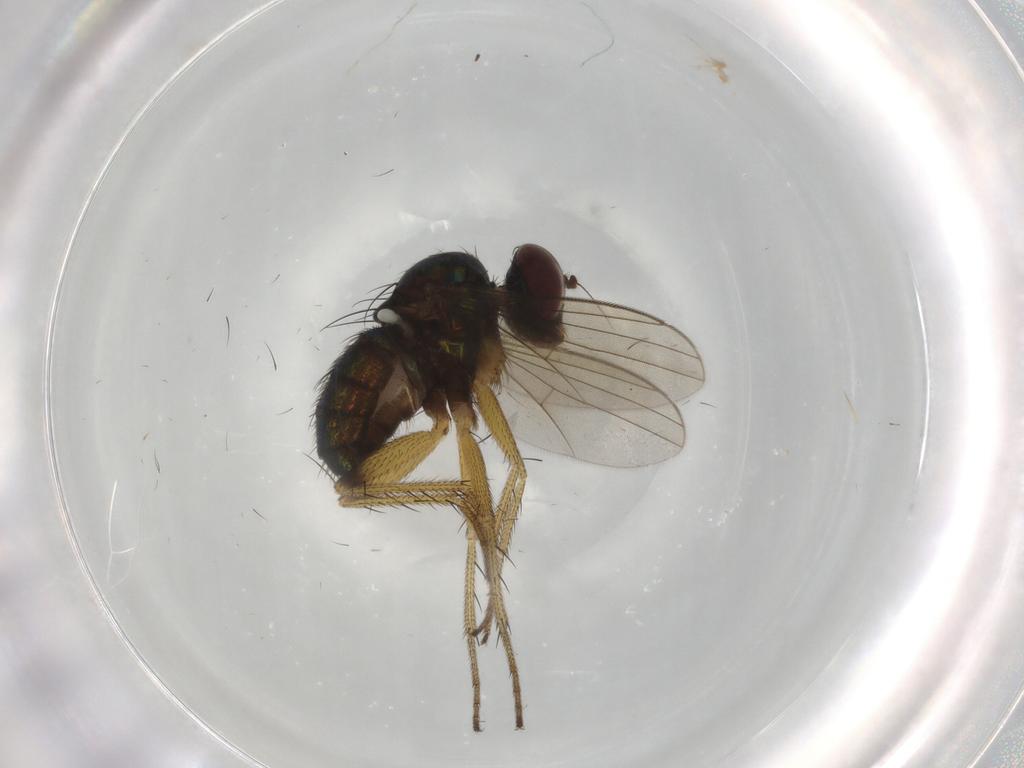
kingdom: Animalia
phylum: Arthropoda
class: Insecta
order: Diptera
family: Dolichopodidae
